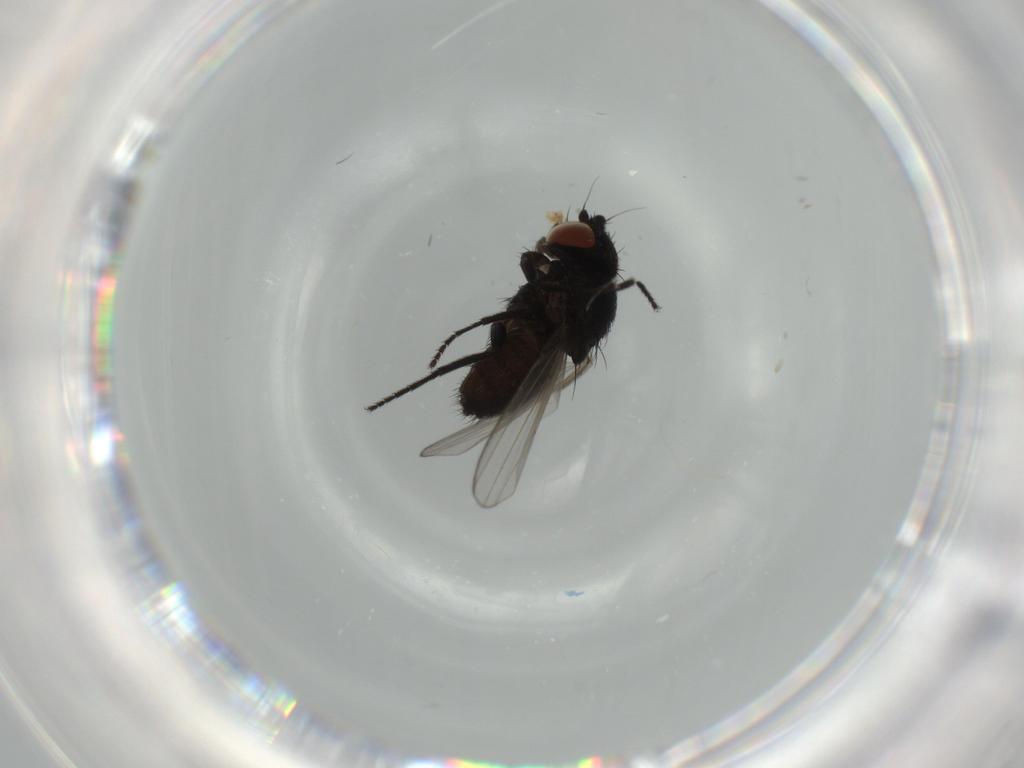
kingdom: Animalia
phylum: Arthropoda
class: Insecta
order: Diptera
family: Milichiidae
